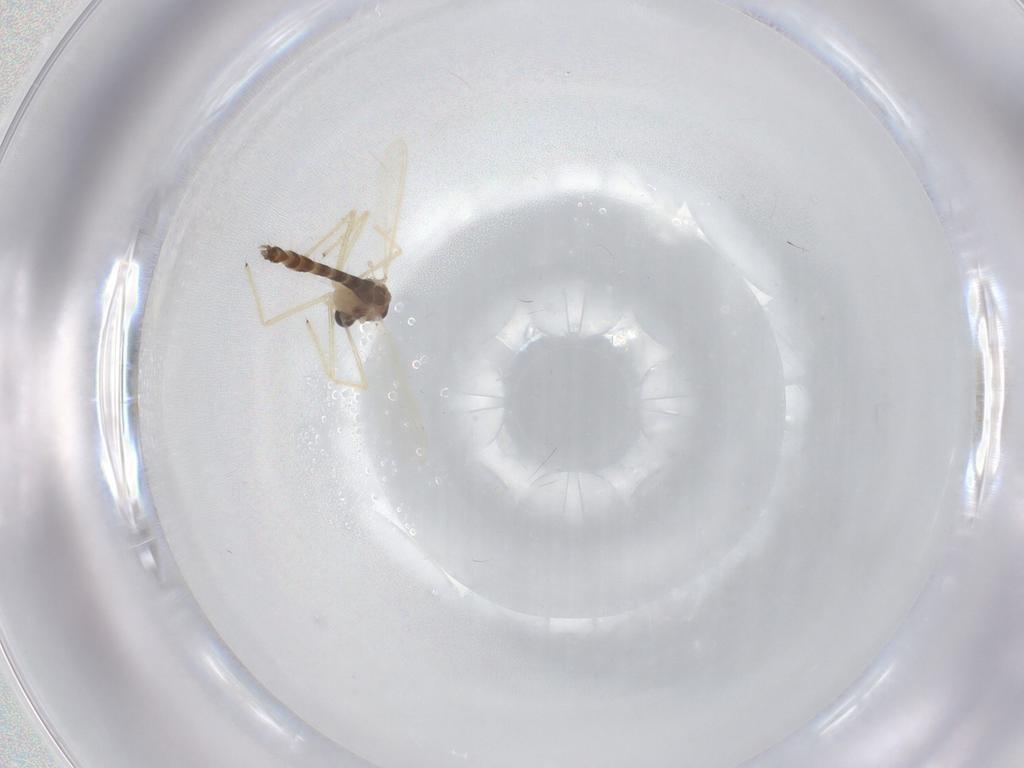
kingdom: Animalia
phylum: Arthropoda
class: Insecta
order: Diptera
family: Chironomidae
